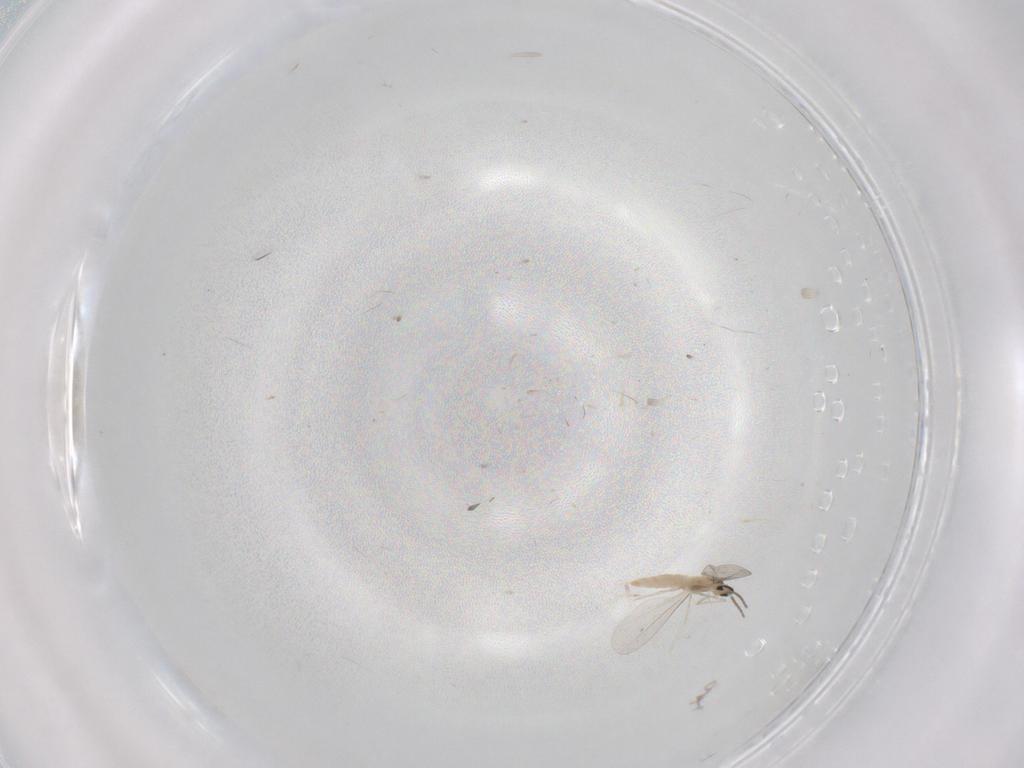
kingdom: Animalia
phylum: Arthropoda
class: Insecta
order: Diptera
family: Cecidomyiidae
